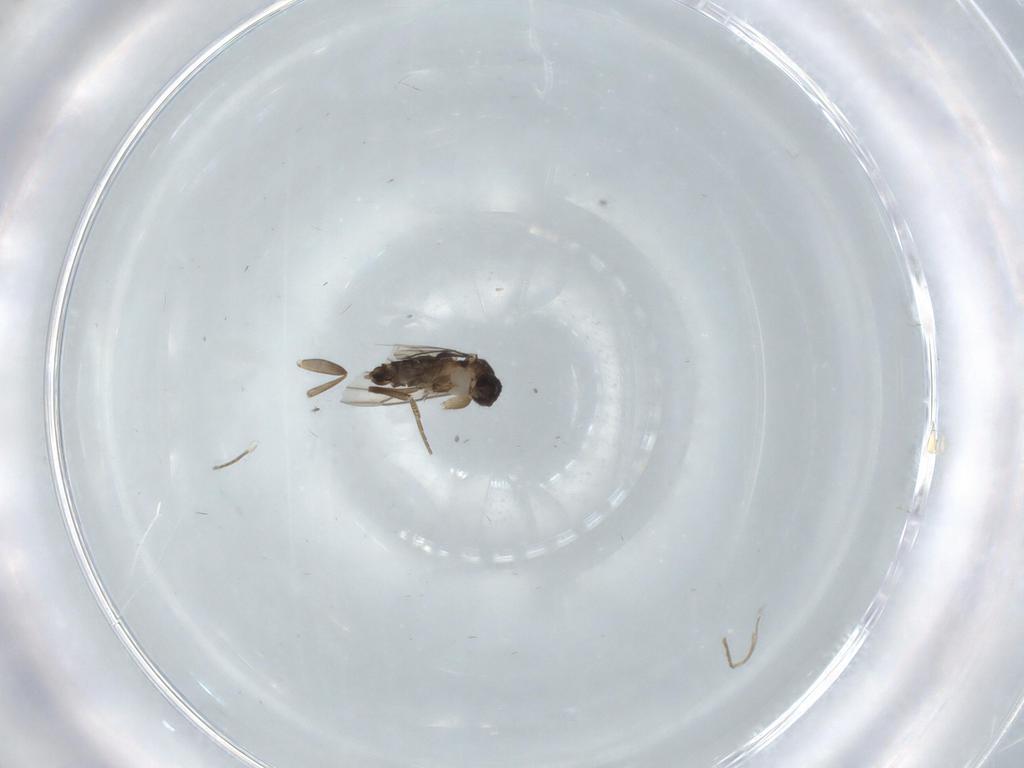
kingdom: Animalia
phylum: Arthropoda
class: Insecta
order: Diptera
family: Phoridae
